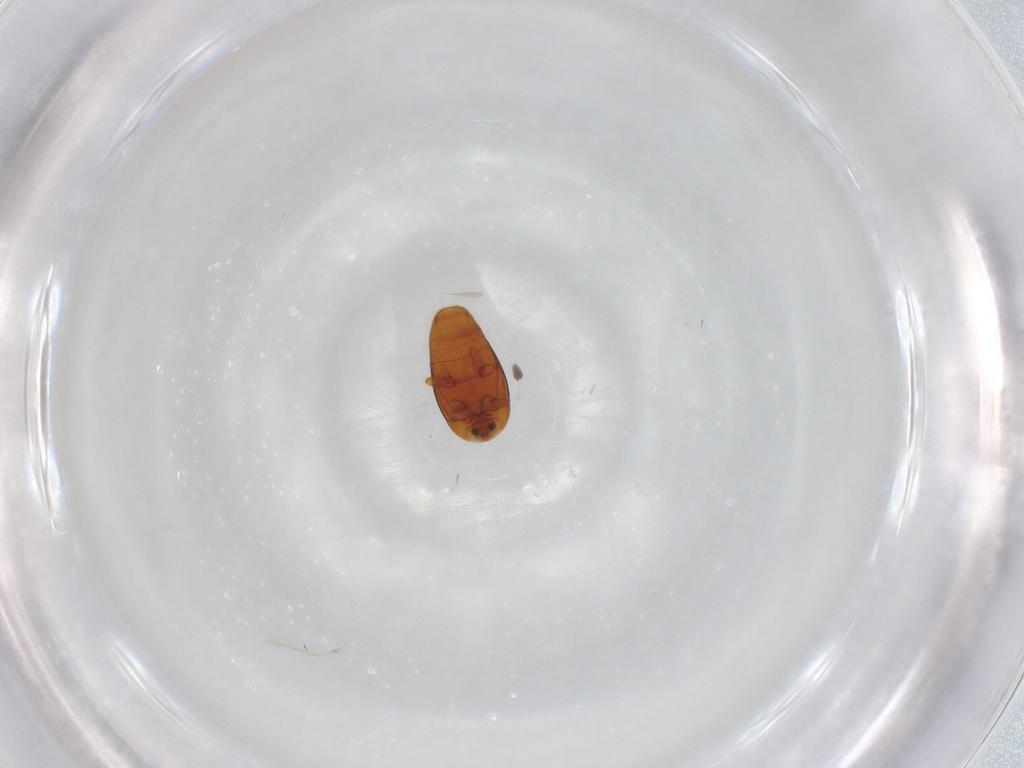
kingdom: Animalia
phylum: Arthropoda
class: Insecta
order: Coleoptera
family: Corylophidae
